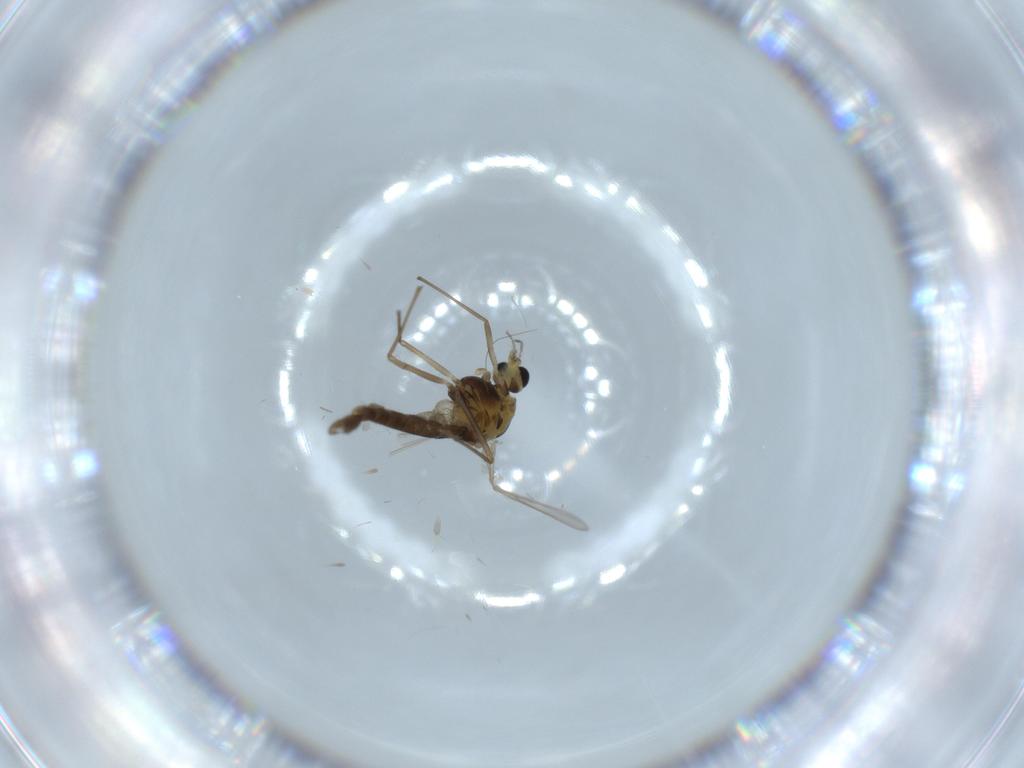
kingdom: Animalia
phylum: Arthropoda
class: Insecta
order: Diptera
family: Chironomidae
